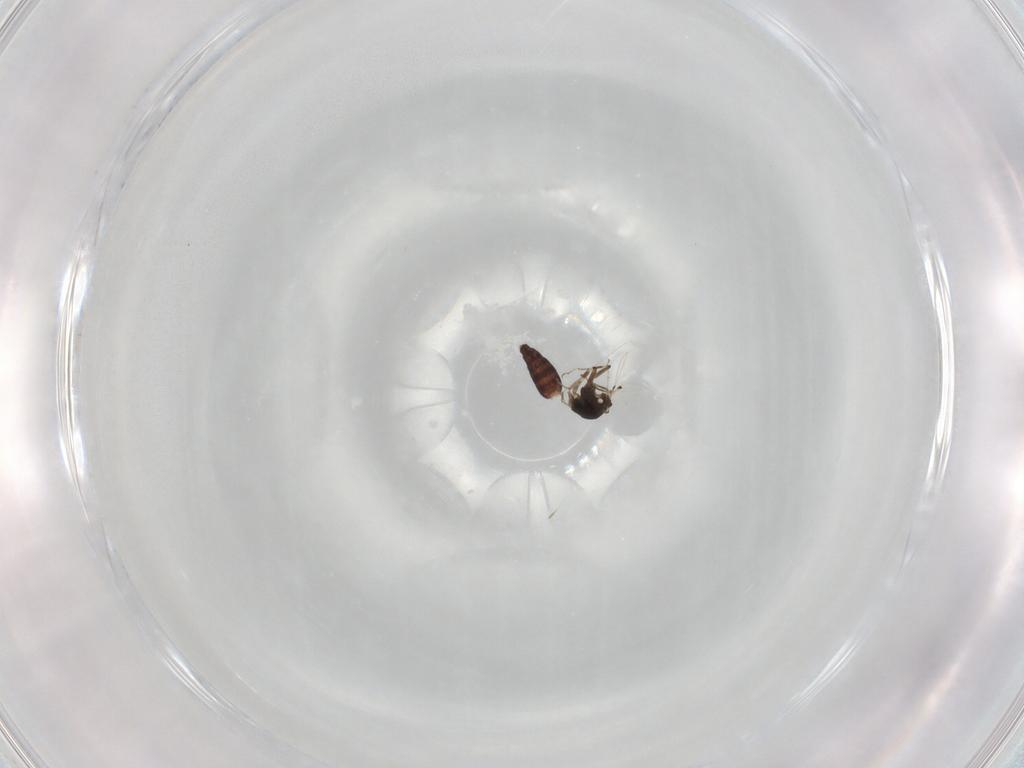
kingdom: Animalia
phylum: Arthropoda
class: Insecta
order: Diptera
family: Ceratopogonidae
